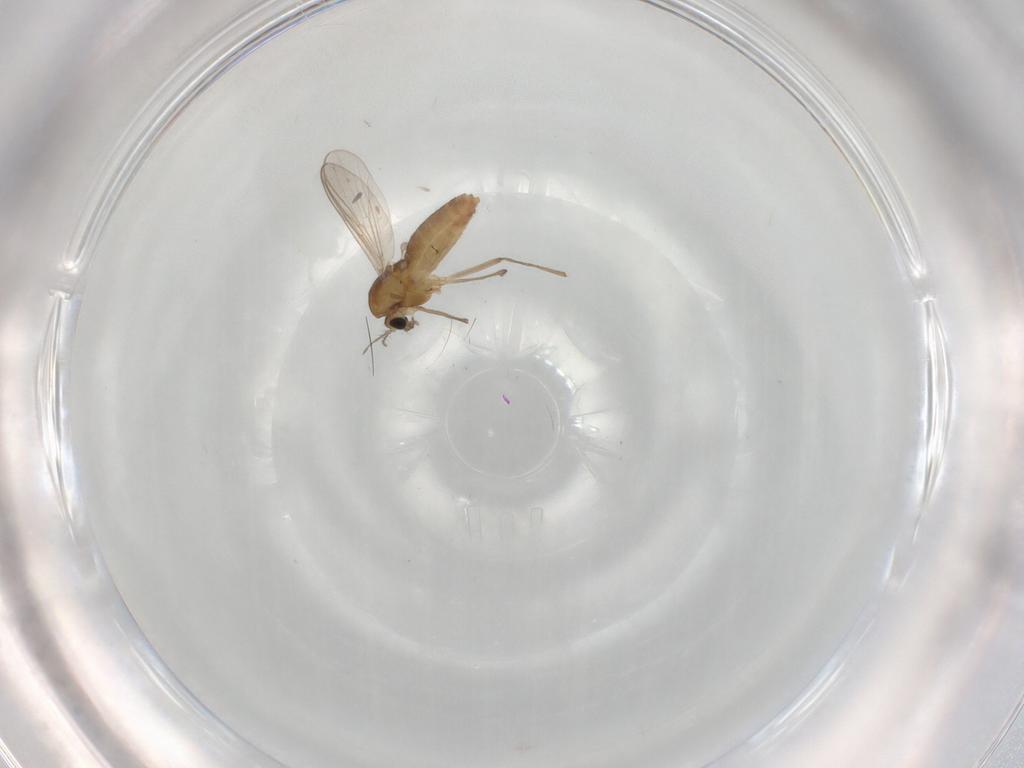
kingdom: Animalia
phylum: Arthropoda
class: Insecta
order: Diptera
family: Chironomidae
